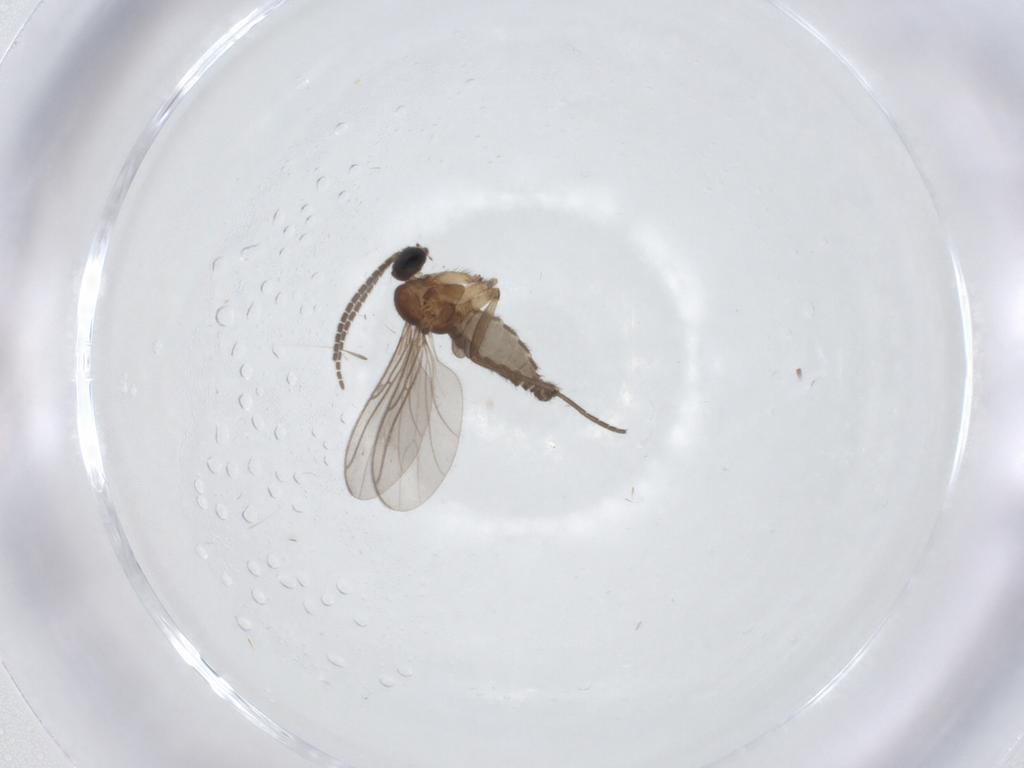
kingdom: Animalia
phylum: Arthropoda
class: Insecta
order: Diptera
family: Sciaridae
